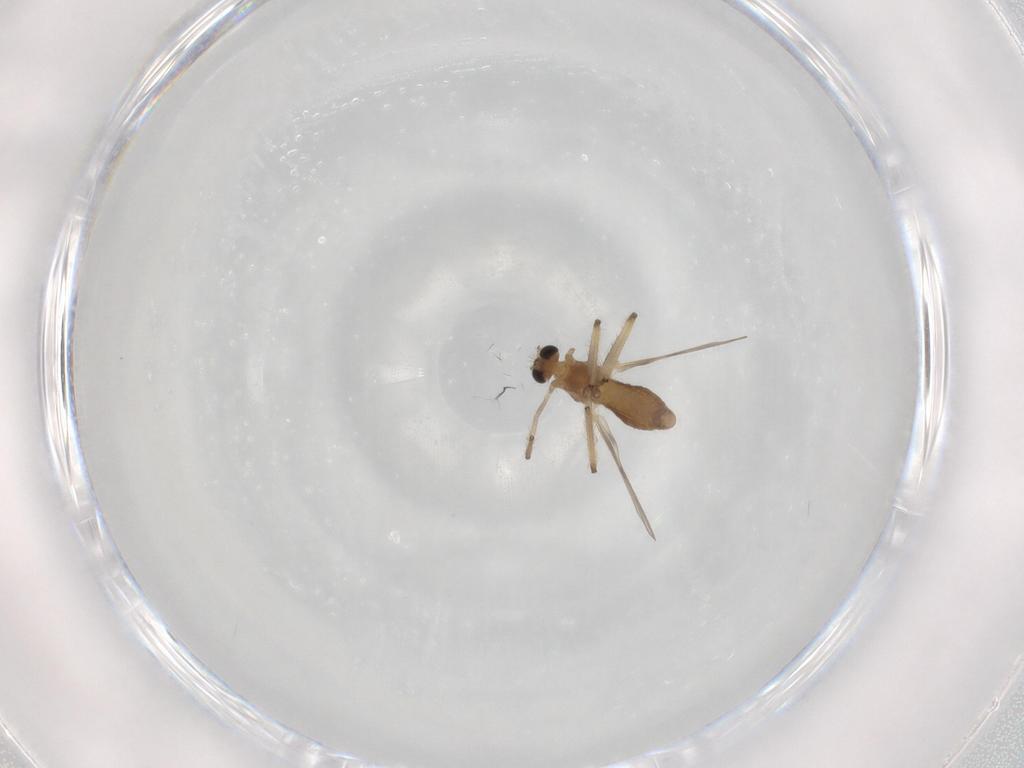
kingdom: Animalia
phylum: Arthropoda
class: Insecta
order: Diptera
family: Chironomidae
